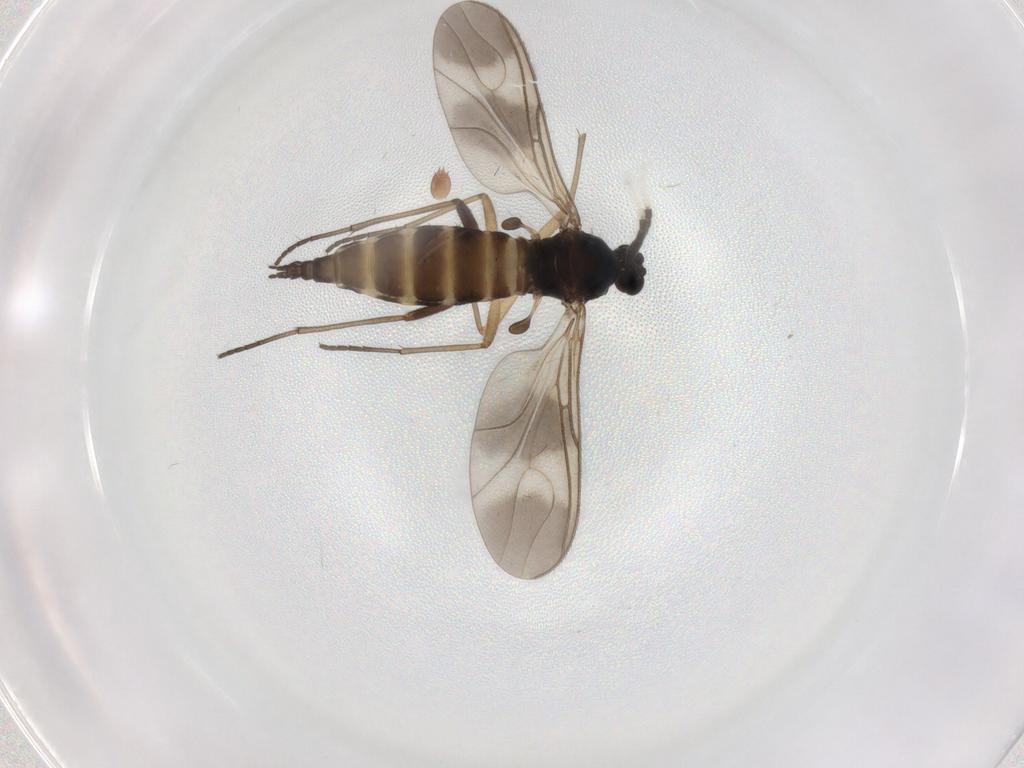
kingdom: Animalia
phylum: Arthropoda
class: Insecta
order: Diptera
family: Sciaridae
